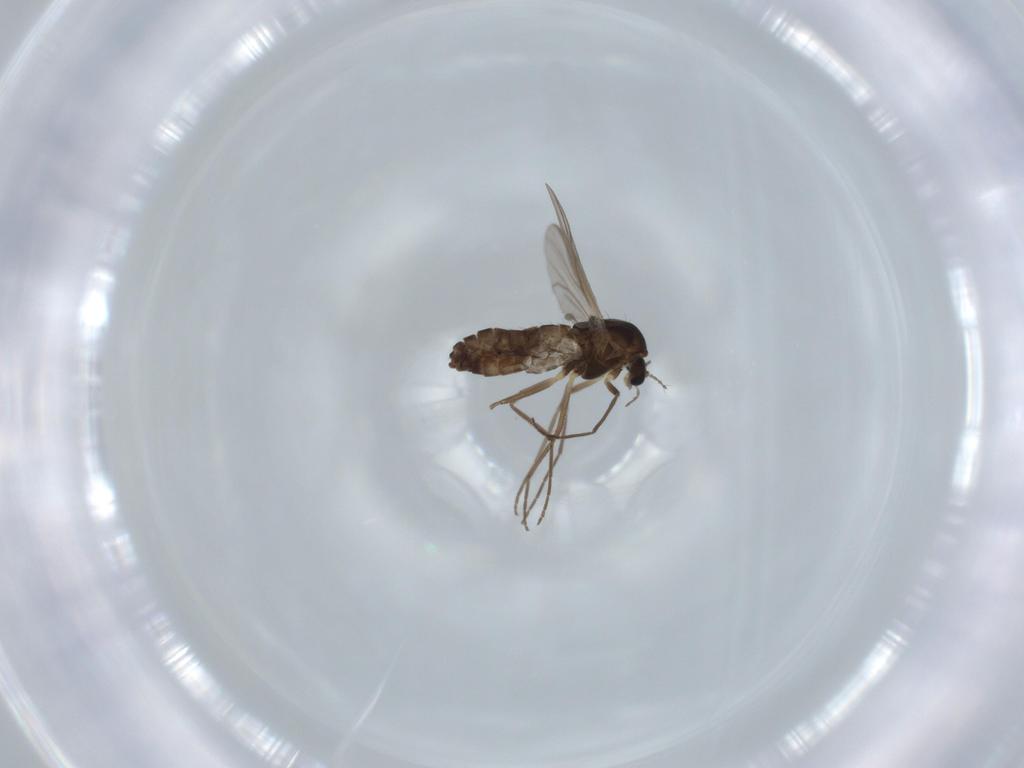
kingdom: Animalia
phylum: Arthropoda
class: Insecta
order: Diptera
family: Chironomidae
